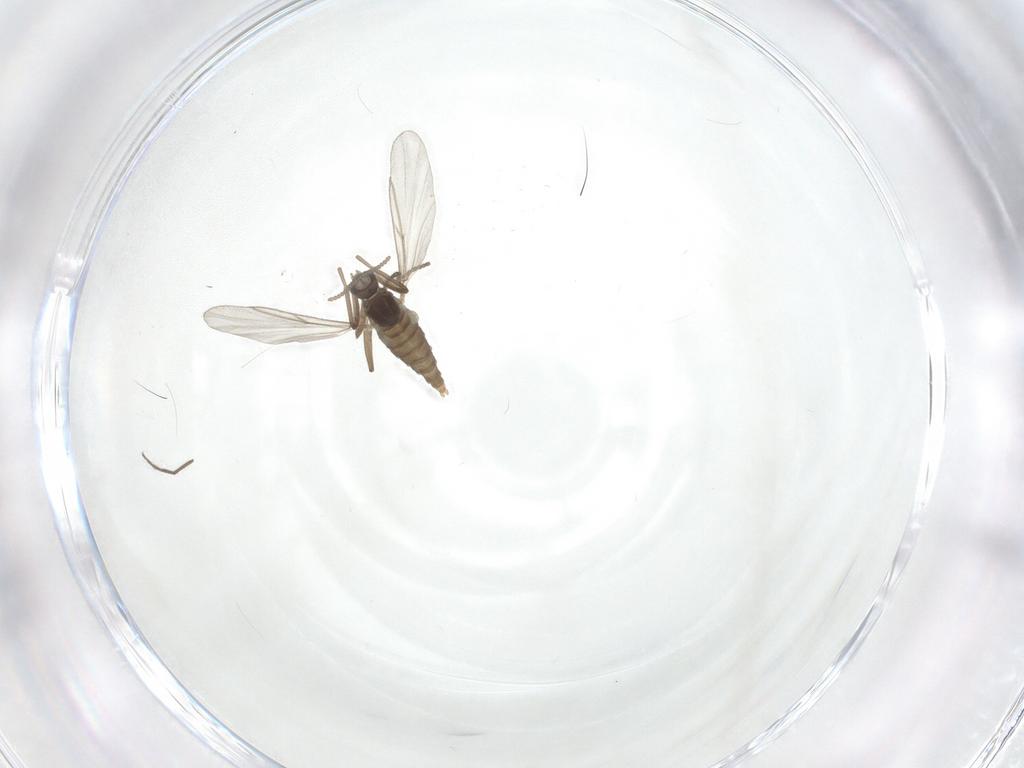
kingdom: Animalia
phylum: Arthropoda
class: Insecta
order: Diptera
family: Cecidomyiidae
